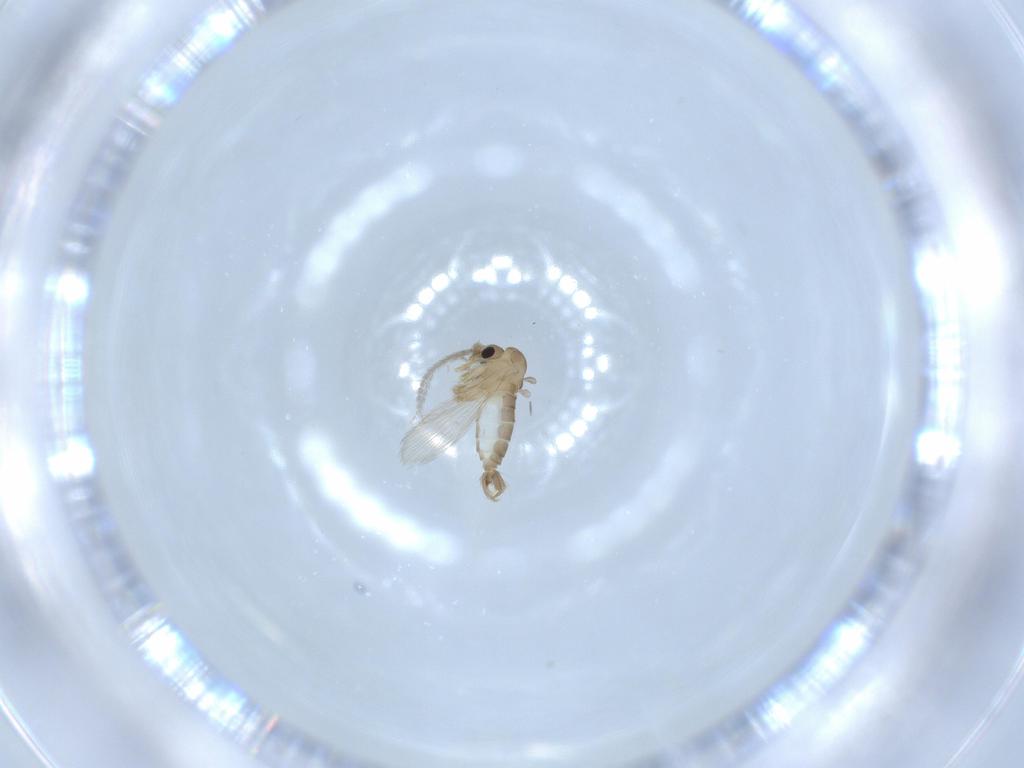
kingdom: Animalia
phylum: Arthropoda
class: Insecta
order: Diptera
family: Psychodidae
